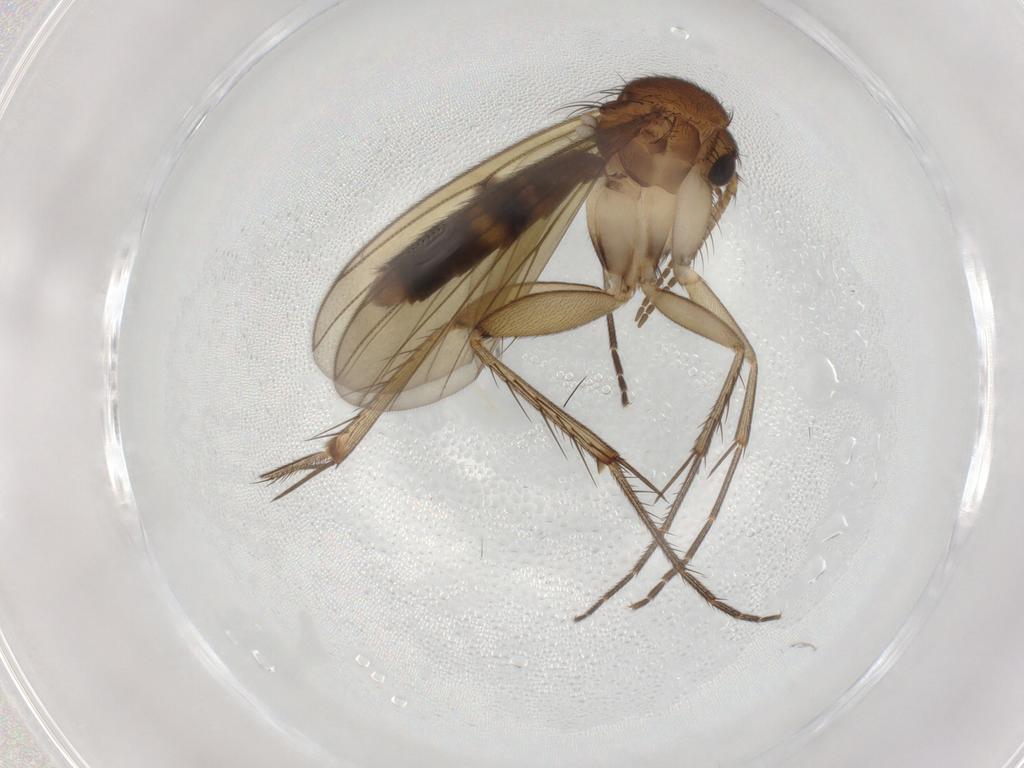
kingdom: Animalia
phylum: Arthropoda
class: Insecta
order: Diptera
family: Chironomidae
